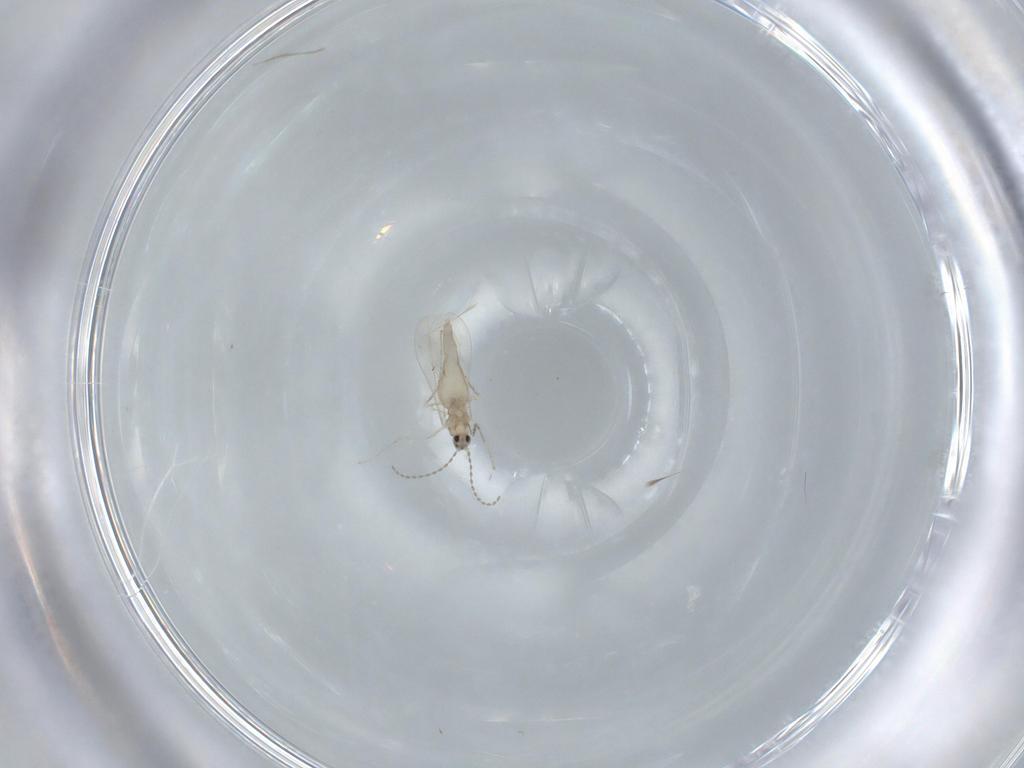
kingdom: Animalia
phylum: Arthropoda
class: Insecta
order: Diptera
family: Cecidomyiidae
